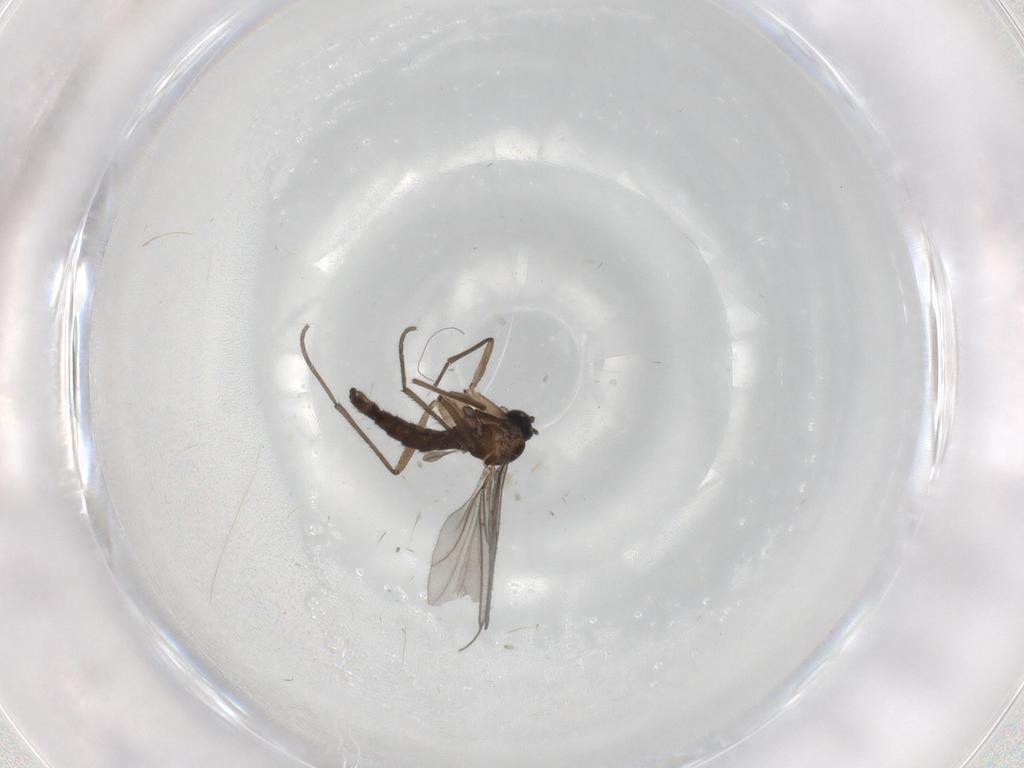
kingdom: Animalia
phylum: Arthropoda
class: Insecta
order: Diptera
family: Sciaridae
